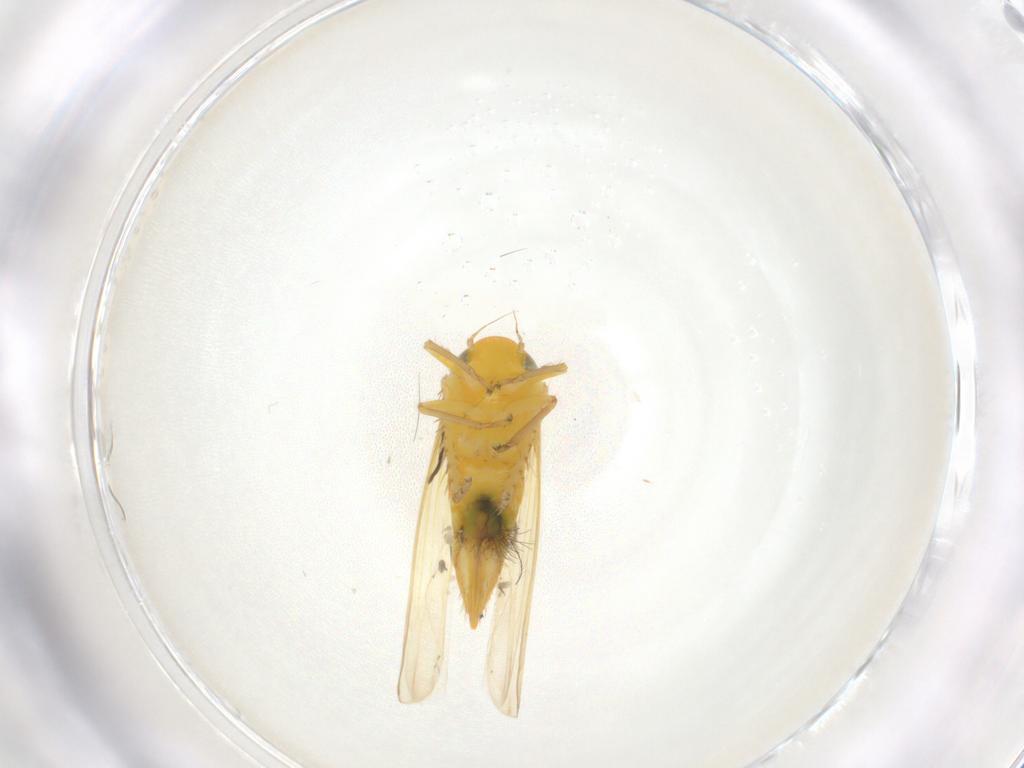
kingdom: Animalia
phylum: Arthropoda
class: Insecta
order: Hemiptera
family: Cicadellidae
